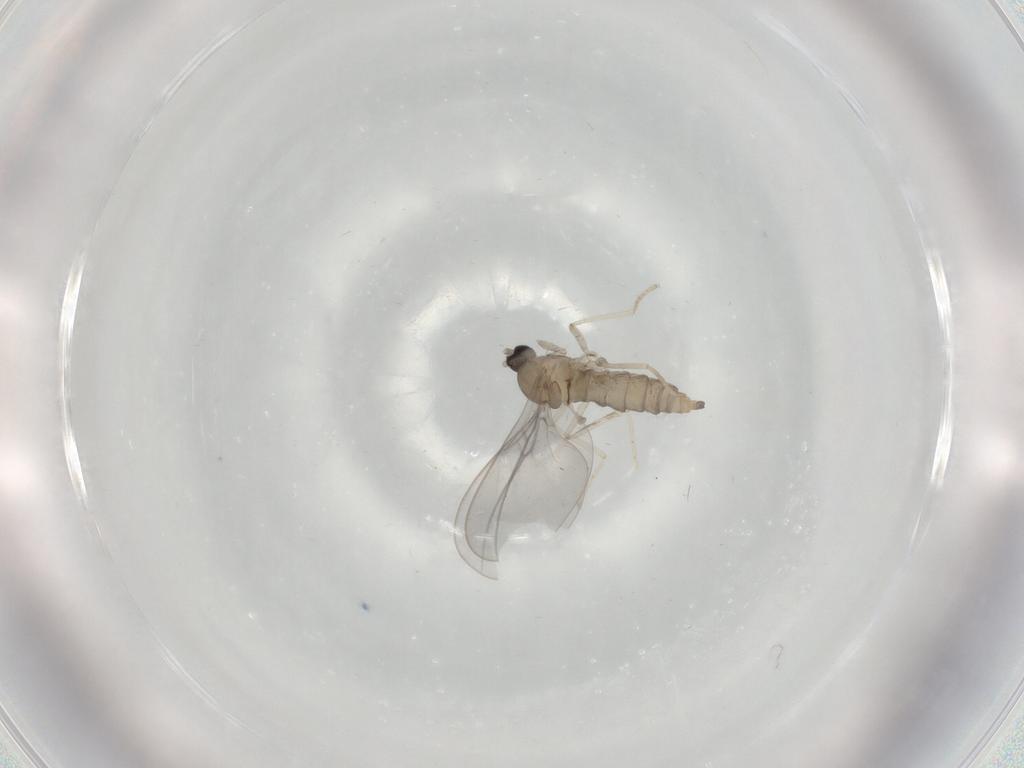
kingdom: Animalia
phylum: Arthropoda
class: Insecta
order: Diptera
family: Cecidomyiidae
